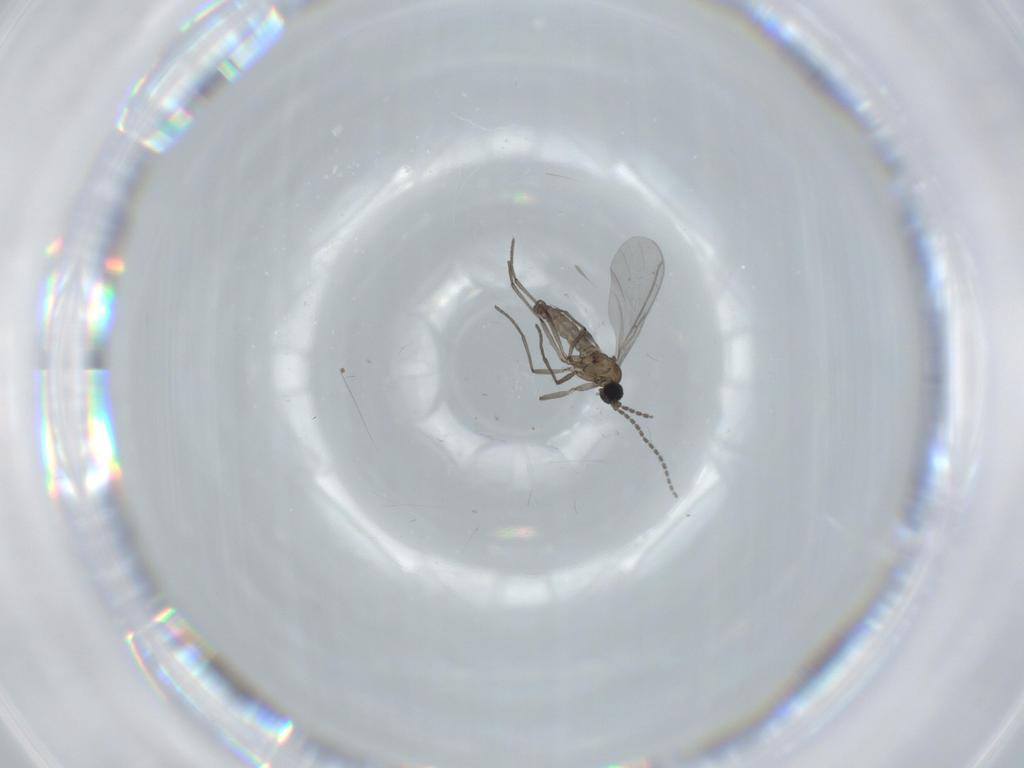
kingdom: Animalia
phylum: Arthropoda
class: Insecta
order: Diptera
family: Sciaridae
